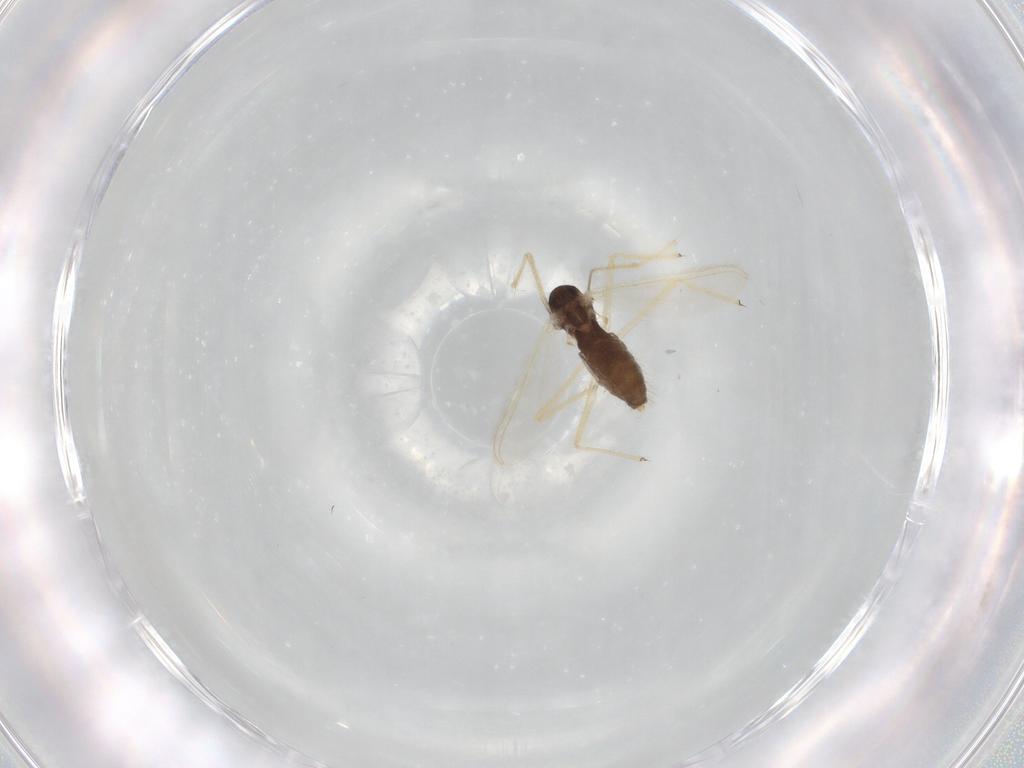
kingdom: Animalia
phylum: Arthropoda
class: Insecta
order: Diptera
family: Chironomidae
